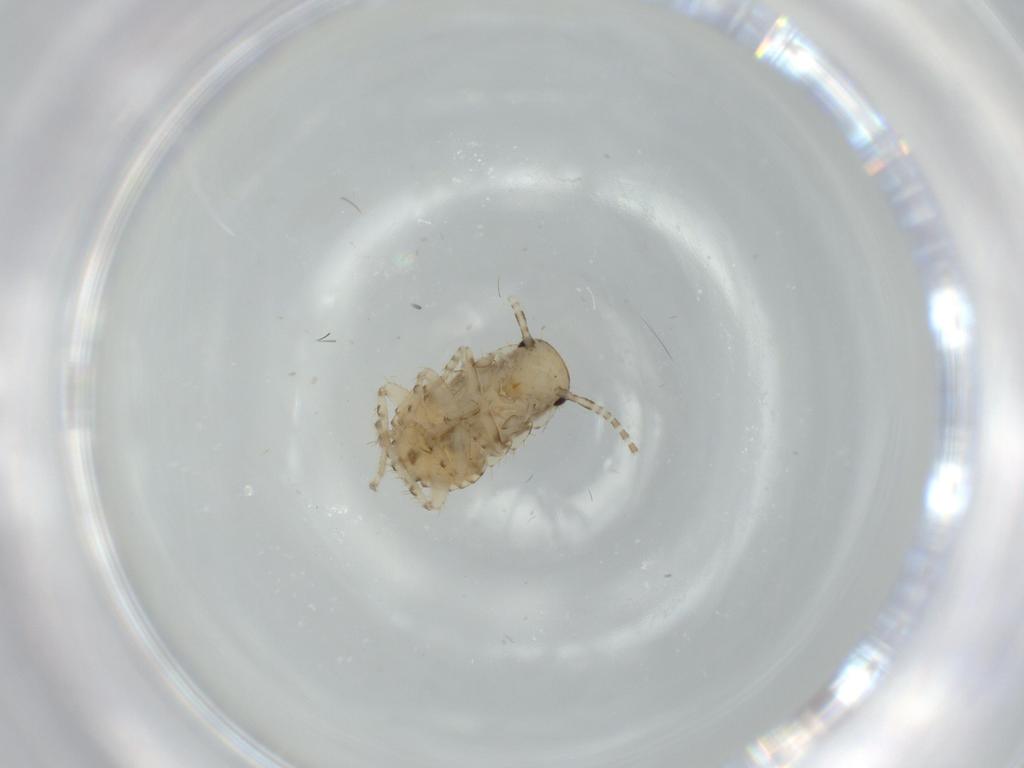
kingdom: Animalia
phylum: Arthropoda
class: Insecta
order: Blattodea
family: Ectobiidae
